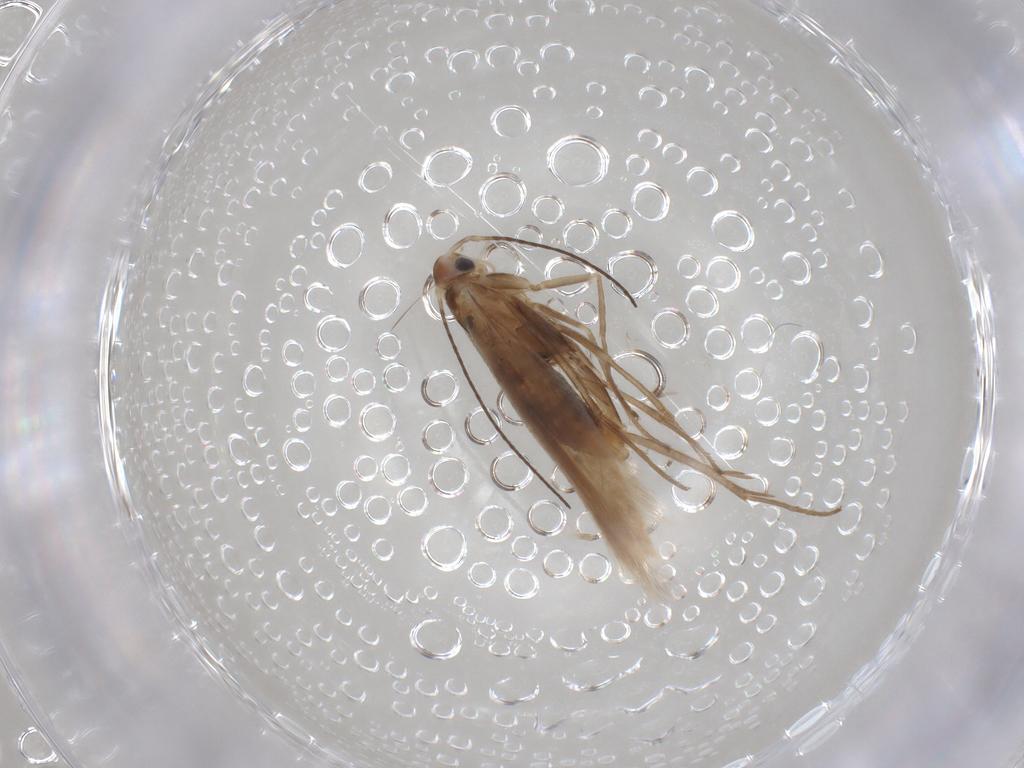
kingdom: Animalia
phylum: Arthropoda
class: Insecta
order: Lepidoptera
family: Coleophoridae
